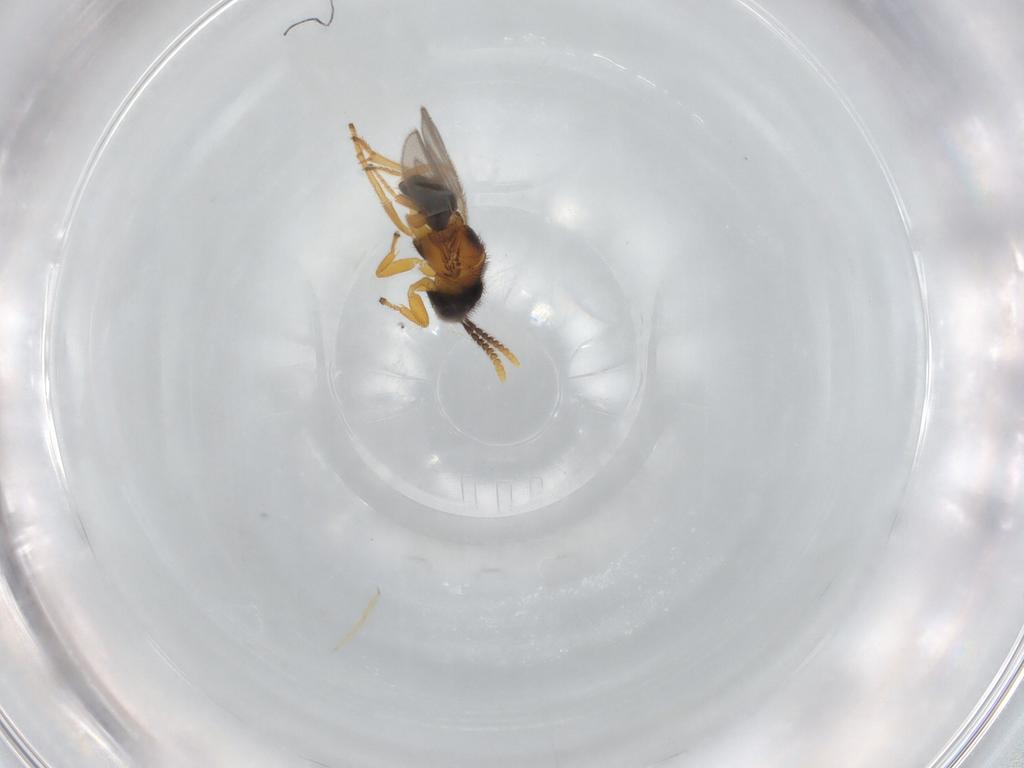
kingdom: Animalia
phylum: Arthropoda
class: Insecta
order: Hymenoptera
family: Encyrtidae
